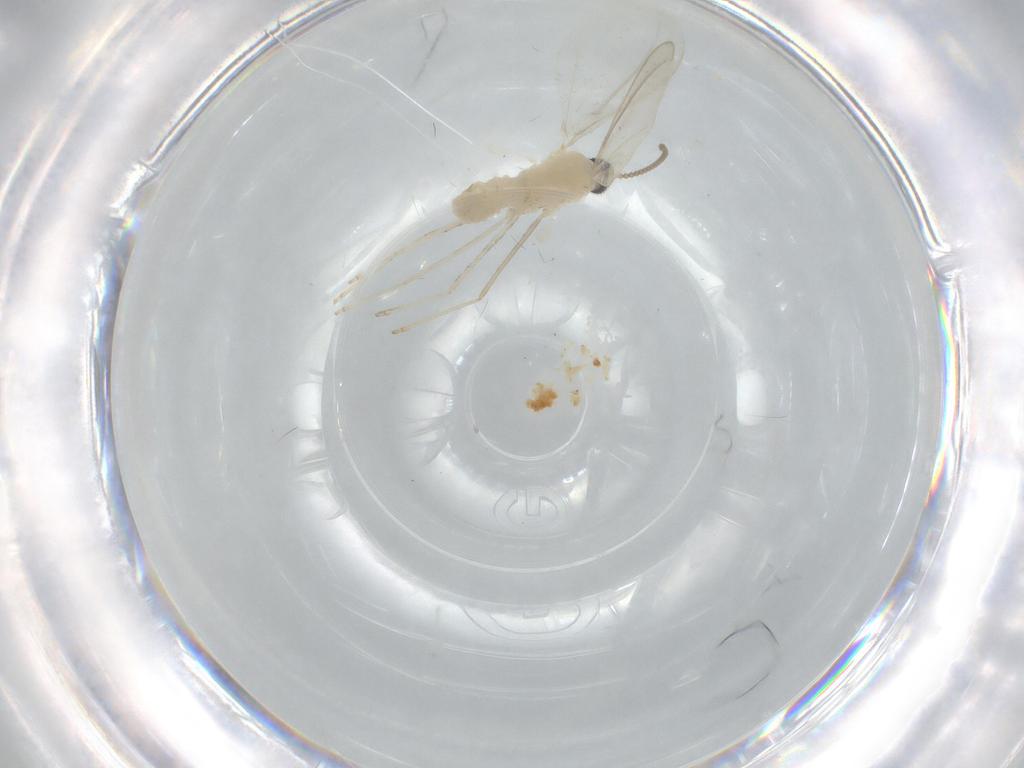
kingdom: Animalia
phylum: Arthropoda
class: Insecta
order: Diptera
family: Cecidomyiidae
